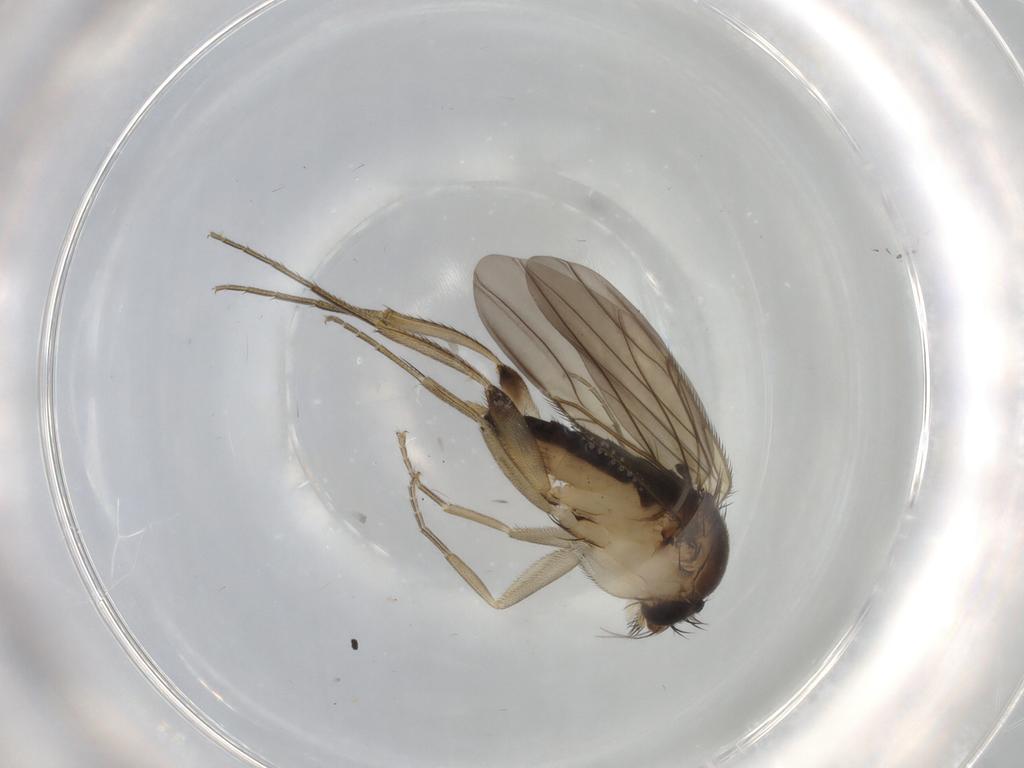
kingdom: Animalia
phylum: Arthropoda
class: Insecta
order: Diptera
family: Phoridae
